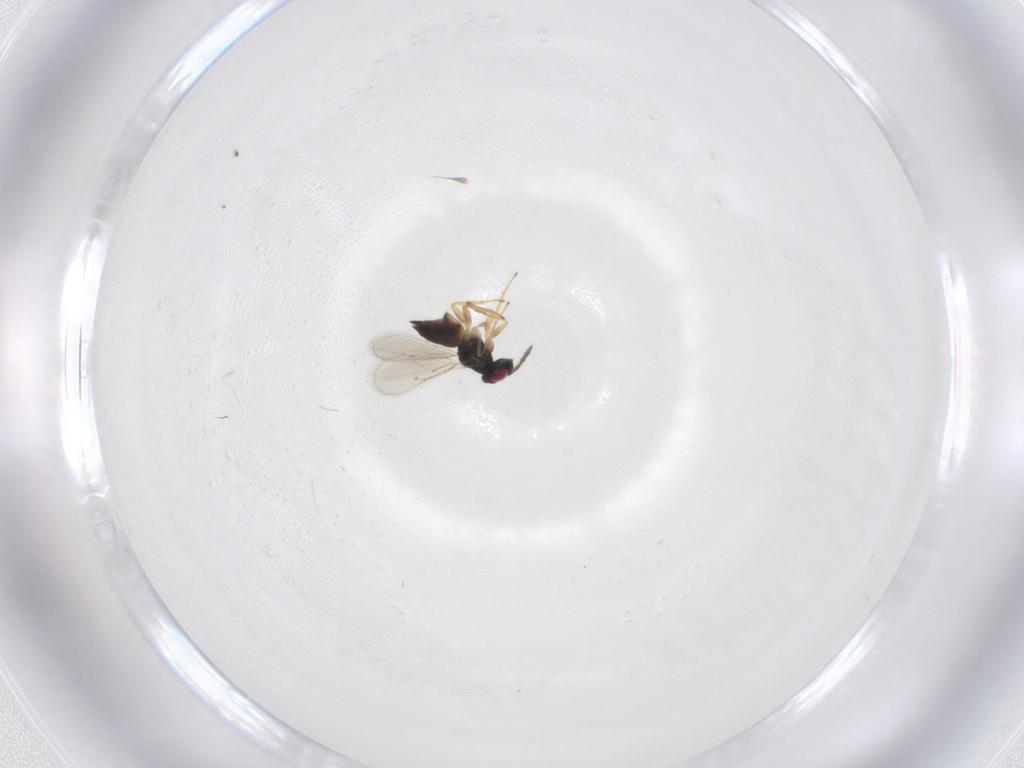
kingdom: Animalia
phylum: Arthropoda
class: Insecta
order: Hymenoptera
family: Eulophidae
